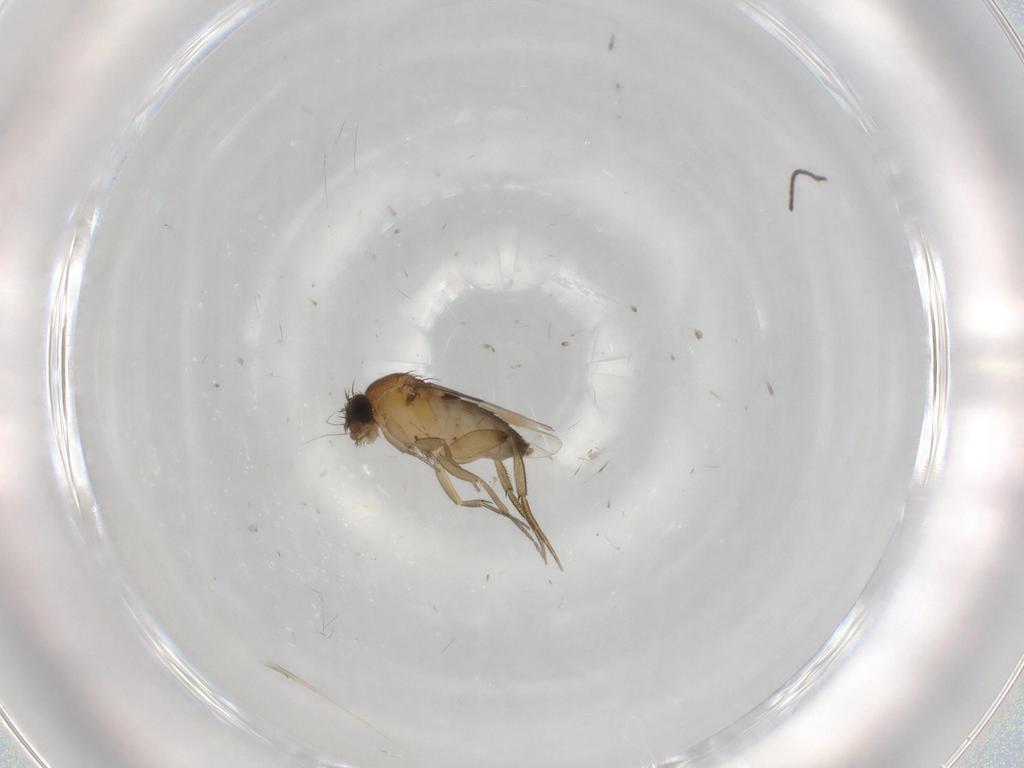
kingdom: Animalia
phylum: Arthropoda
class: Insecta
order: Diptera
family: Phoridae
